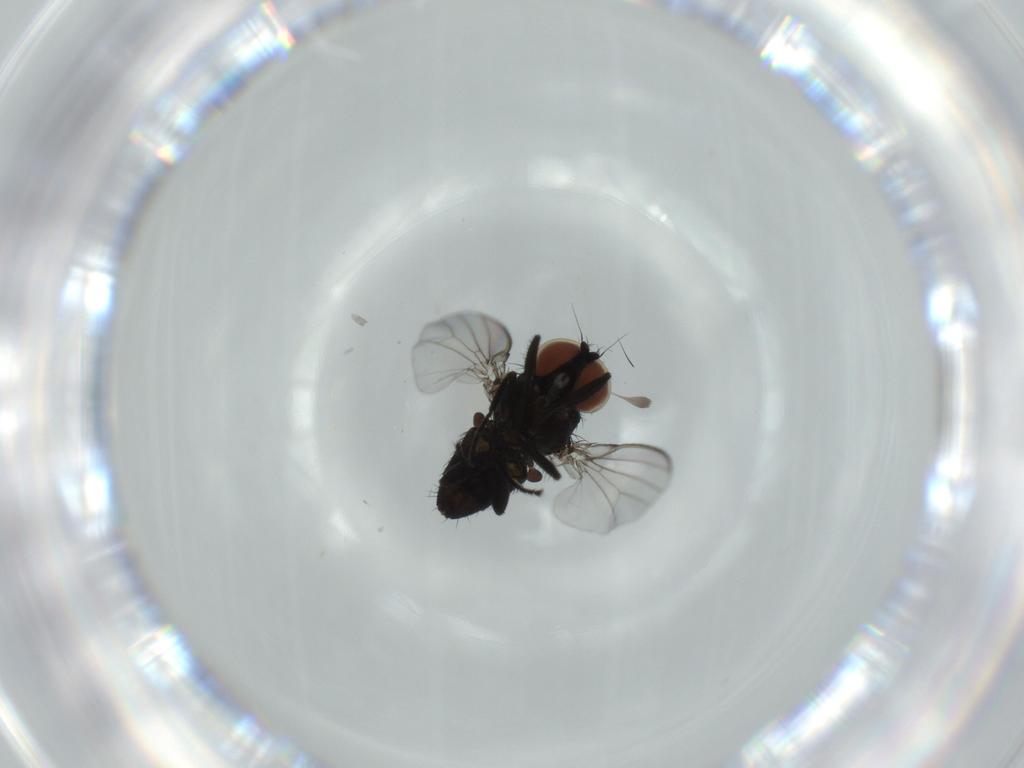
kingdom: Animalia
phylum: Arthropoda
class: Insecta
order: Diptera
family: Milichiidae
